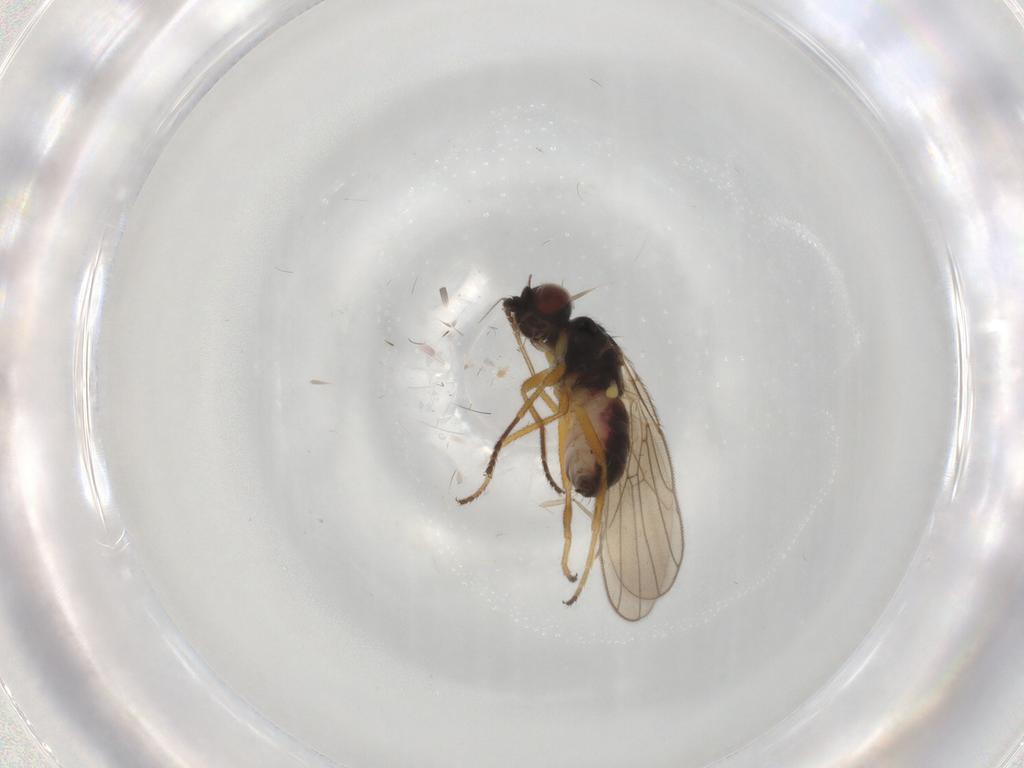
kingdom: Animalia
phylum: Arthropoda
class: Insecta
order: Diptera
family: Chloropidae
